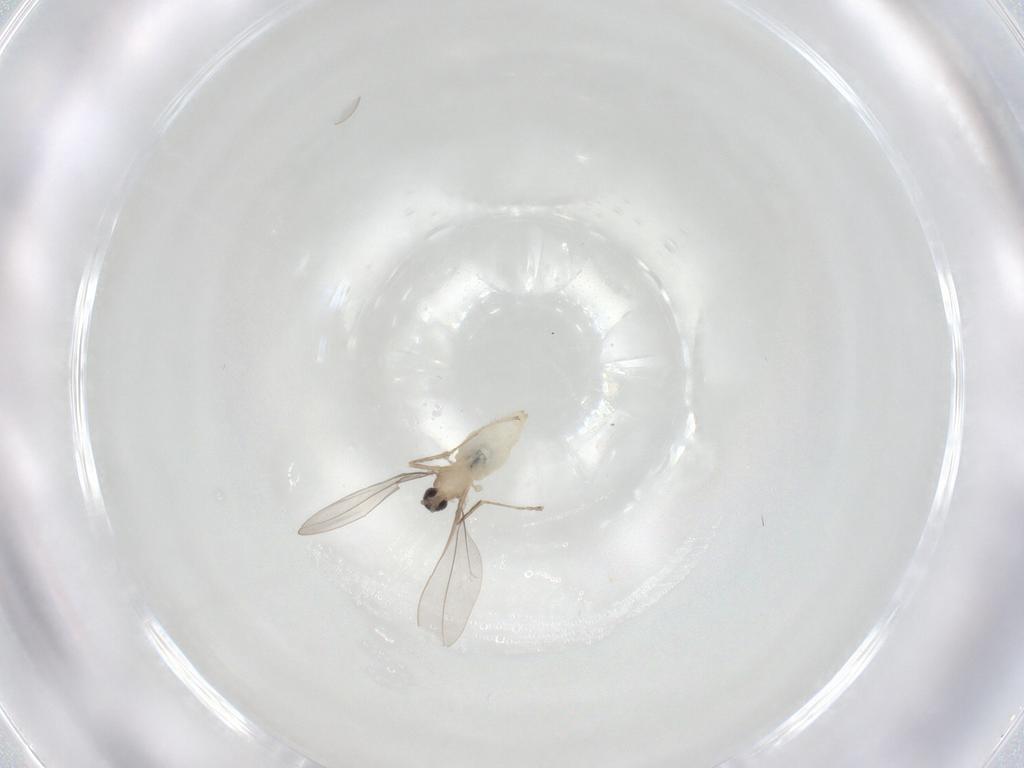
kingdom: Animalia
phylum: Arthropoda
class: Insecta
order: Diptera
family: Cecidomyiidae
